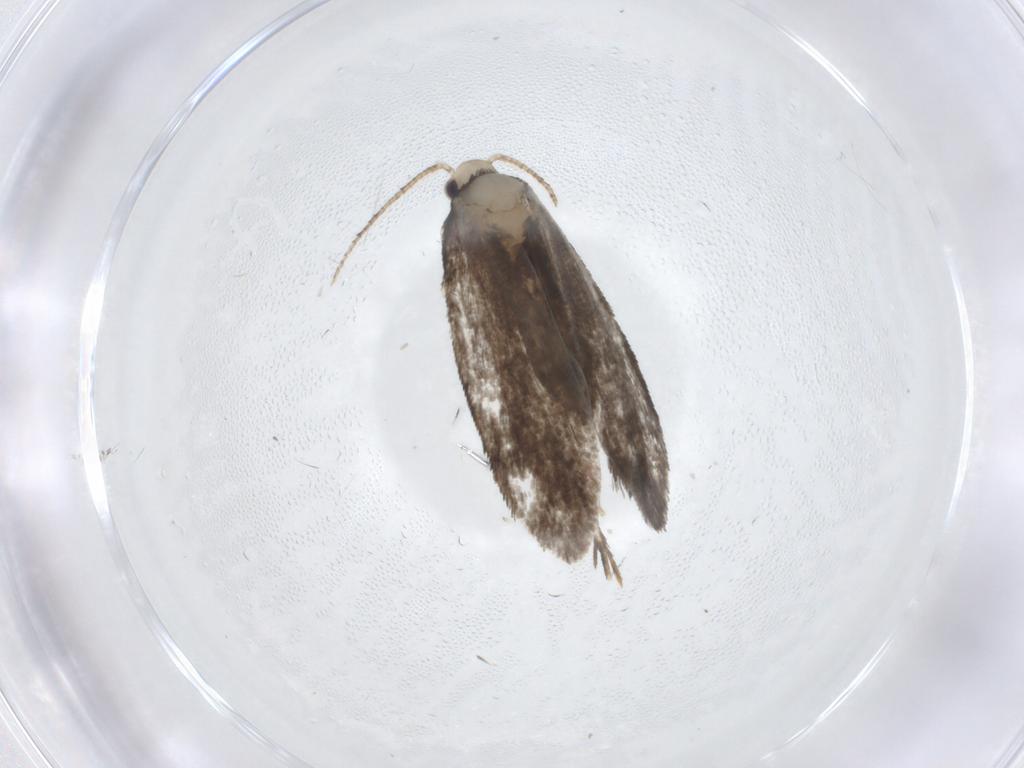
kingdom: Animalia
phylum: Arthropoda
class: Insecta
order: Lepidoptera
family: Psychidae
